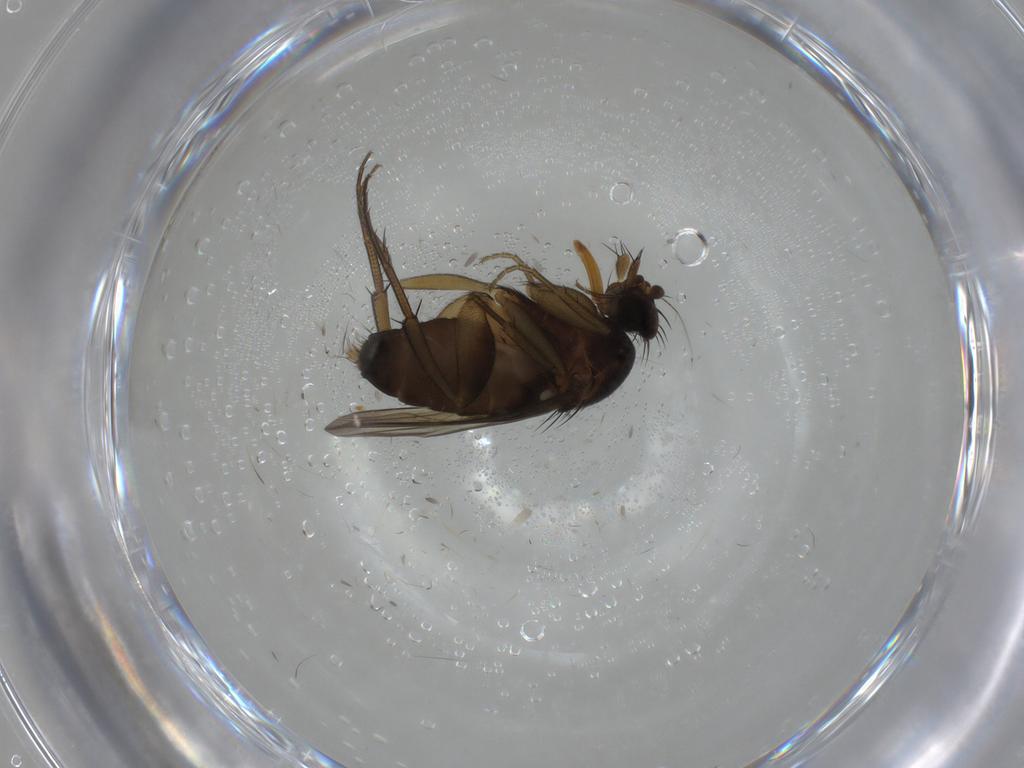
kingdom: Animalia
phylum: Arthropoda
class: Insecta
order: Diptera
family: Phoridae
